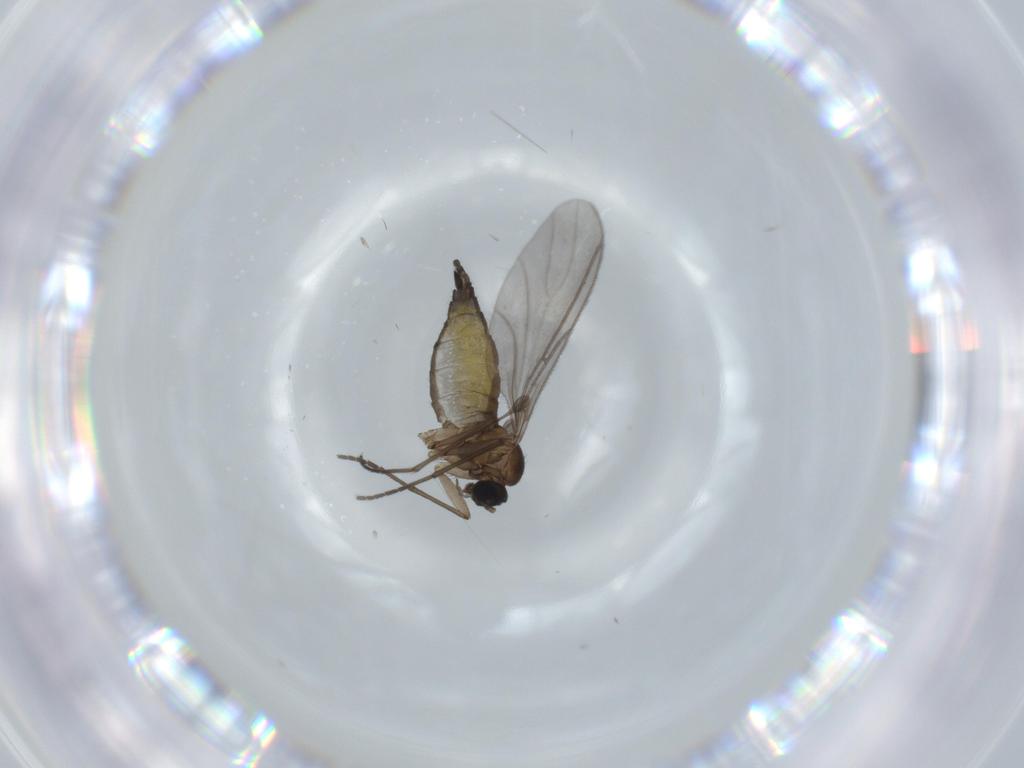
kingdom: Animalia
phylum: Arthropoda
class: Insecta
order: Diptera
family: Sciaridae
